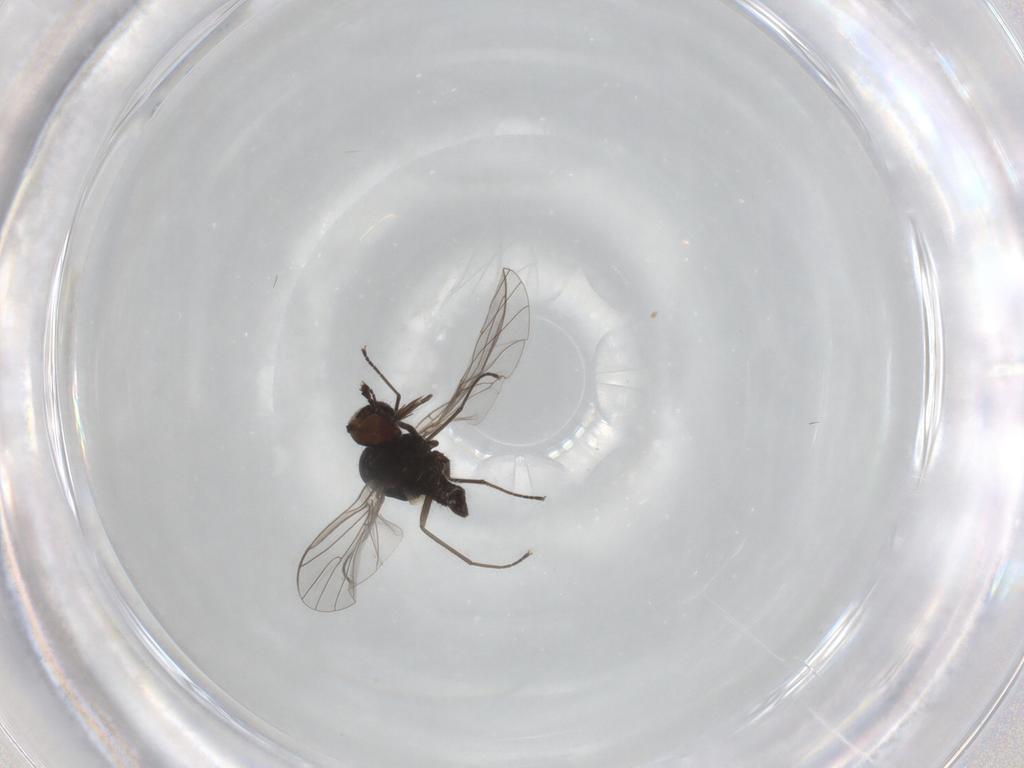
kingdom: Animalia
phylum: Arthropoda
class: Insecta
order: Diptera
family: Bombyliidae
